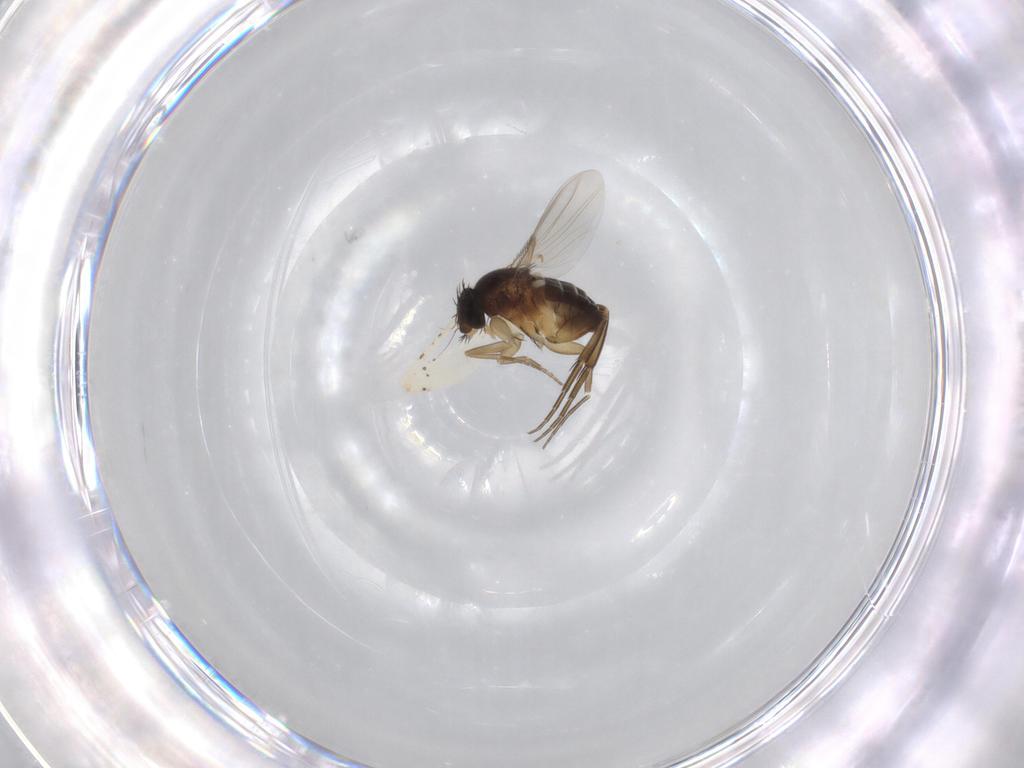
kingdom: Animalia
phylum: Arthropoda
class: Insecta
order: Diptera
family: Phoridae
